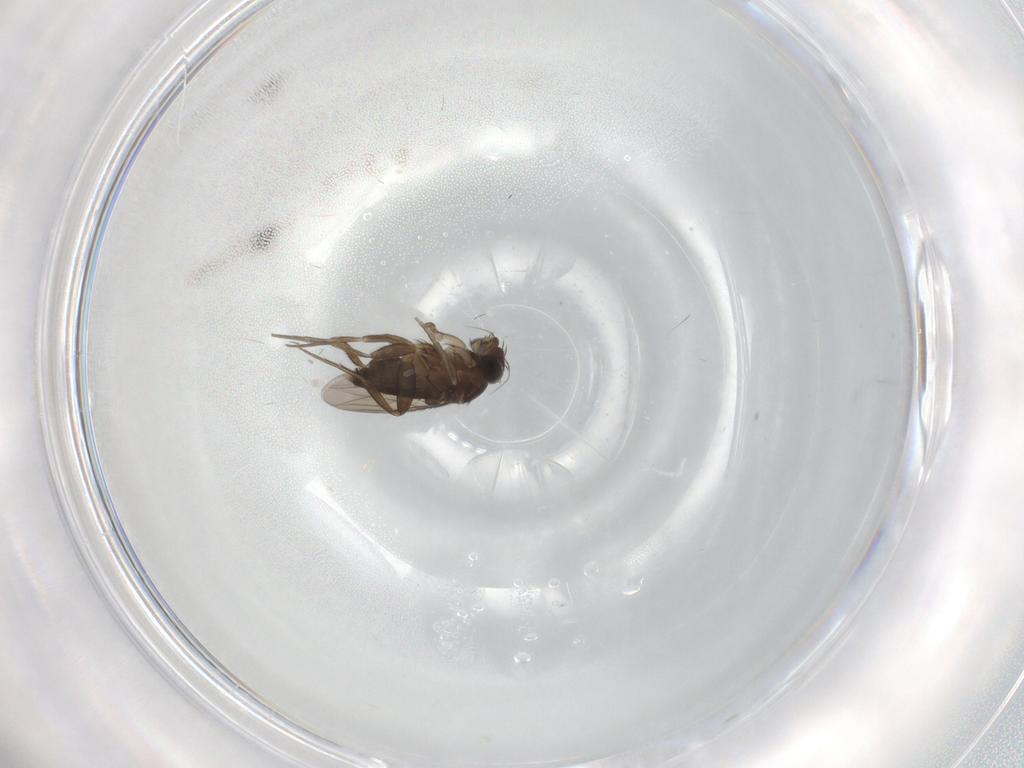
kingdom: Animalia
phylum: Arthropoda
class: Insecta
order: Diptera
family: Phoridae
